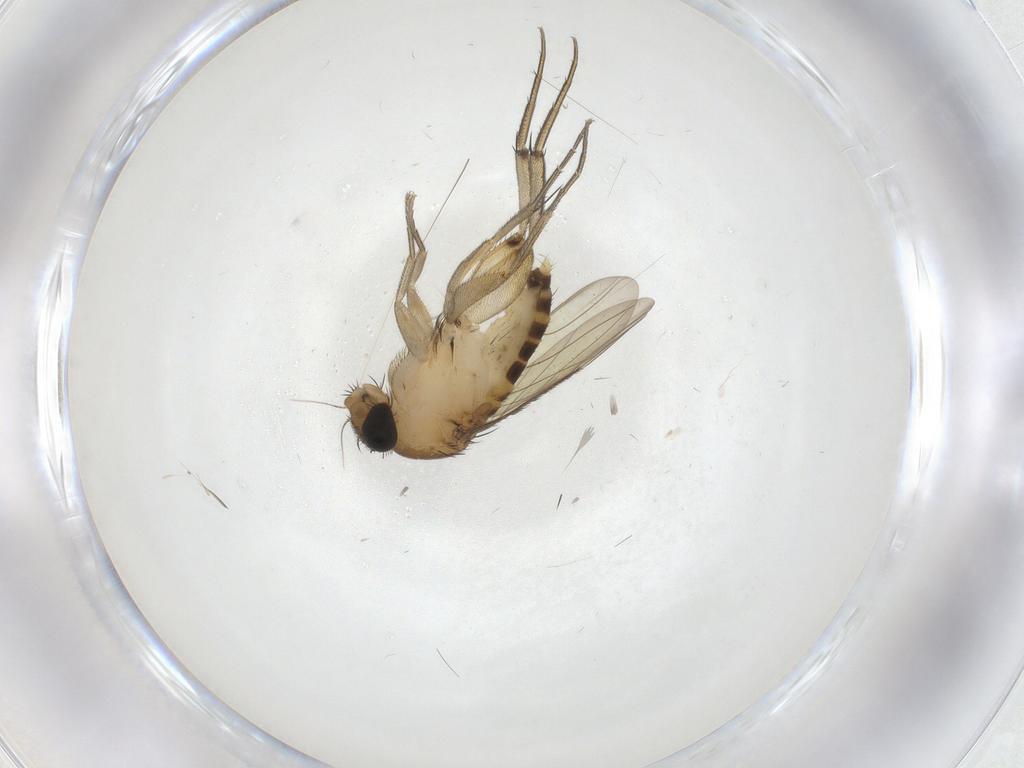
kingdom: Animalia
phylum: Arthropoda
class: Insecta
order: Diptera
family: Phoridae
